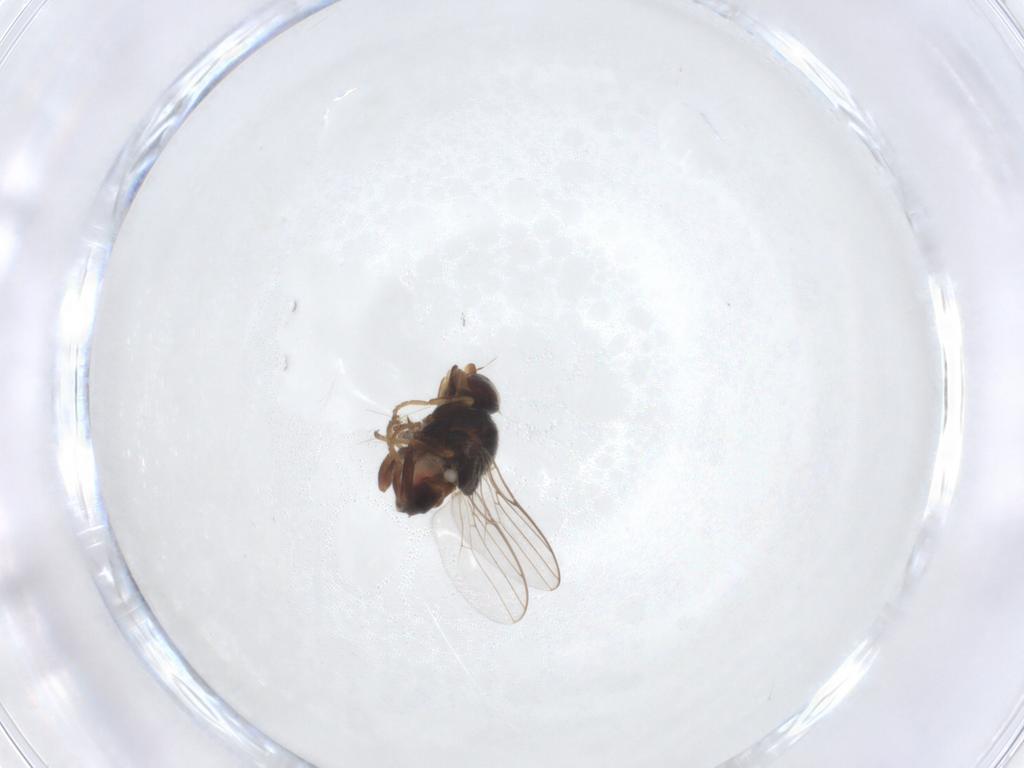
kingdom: Animalia
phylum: Arthropoda
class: Insecta
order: Diptera
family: Chloropidae
